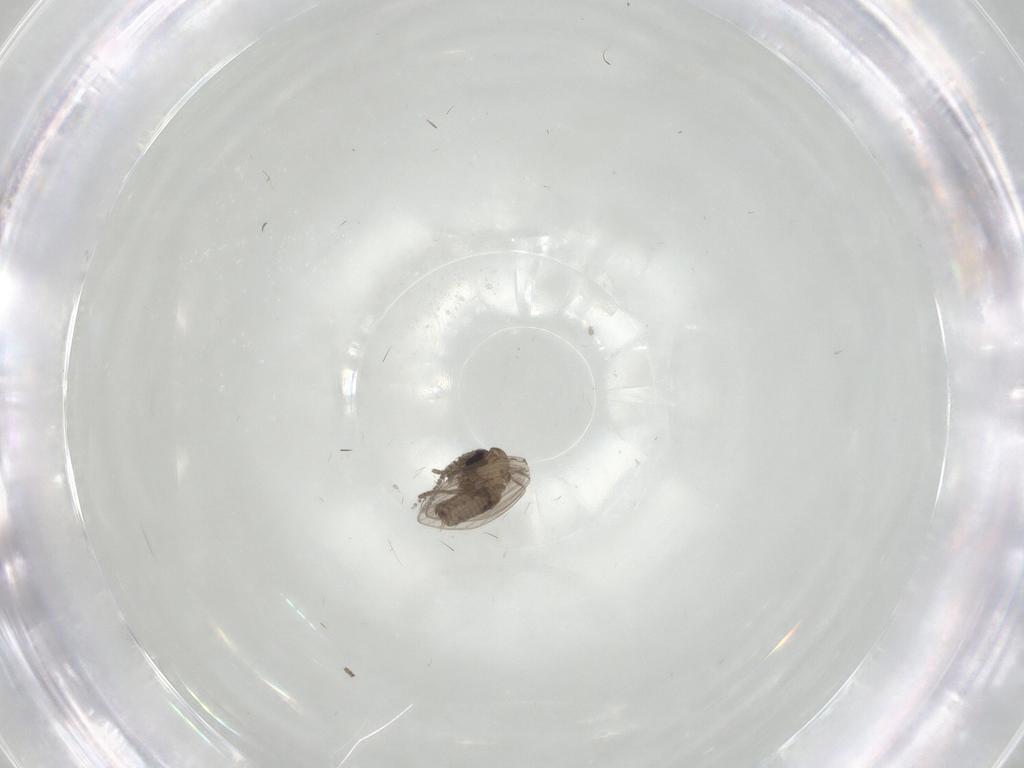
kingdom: Animalia
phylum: Arthropoda
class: Insecta
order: Diptera
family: Psychodidae
